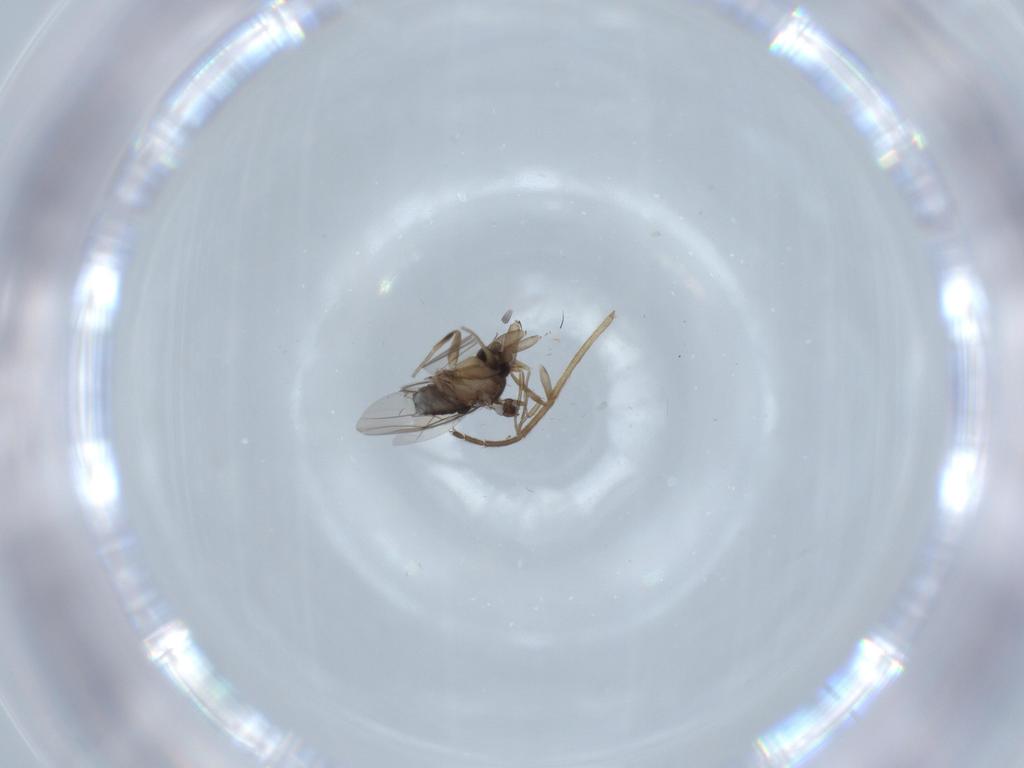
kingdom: Animalia
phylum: Arthropoda
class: Insecta
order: Diptera
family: Phoridae
